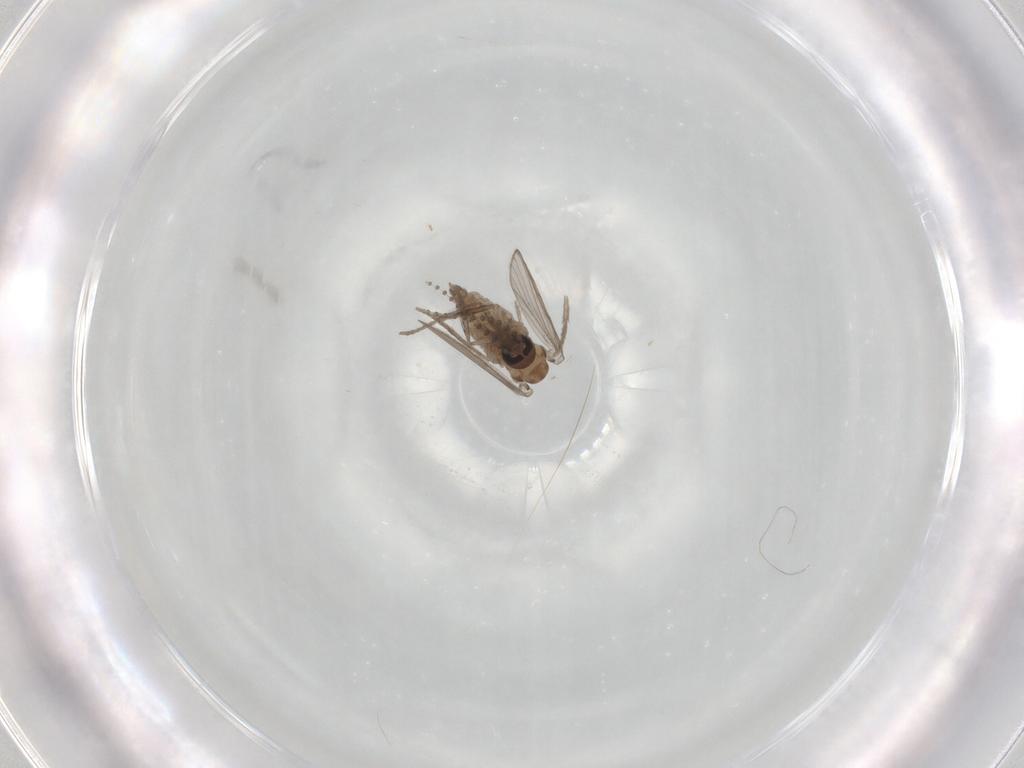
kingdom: Animalia
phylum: Arthropoda
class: Insecta
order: Diptera
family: Psychodidae
